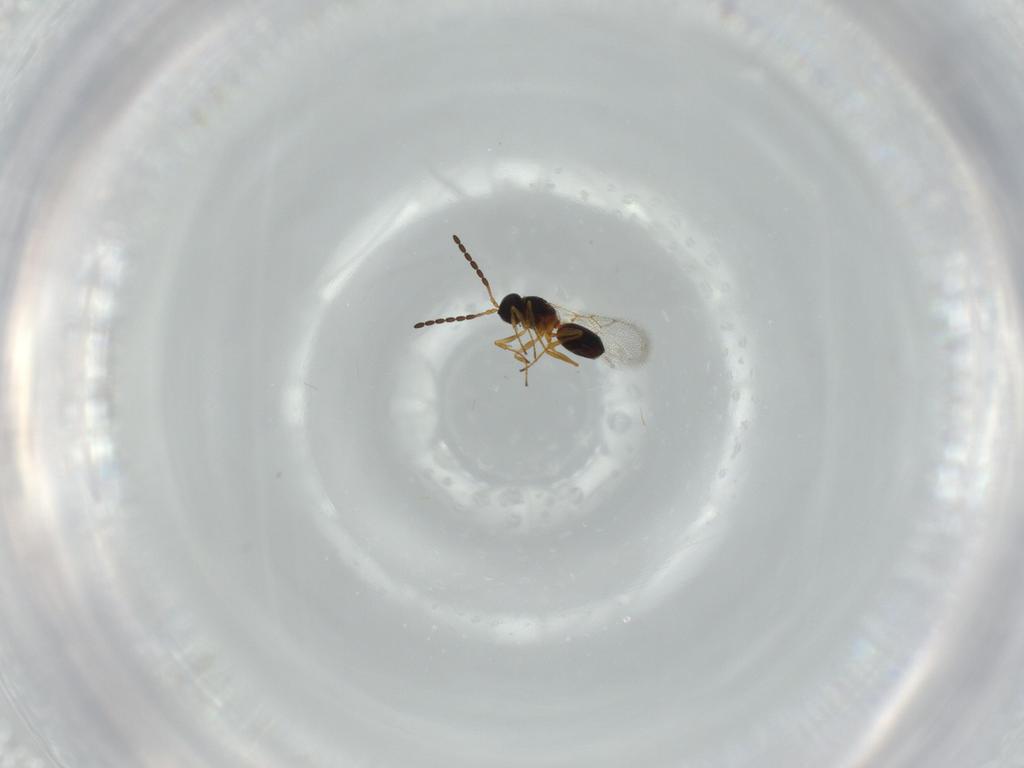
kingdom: Animalia
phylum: Arthropoda
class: Insecta
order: Hymenoptera
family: Figitidae
